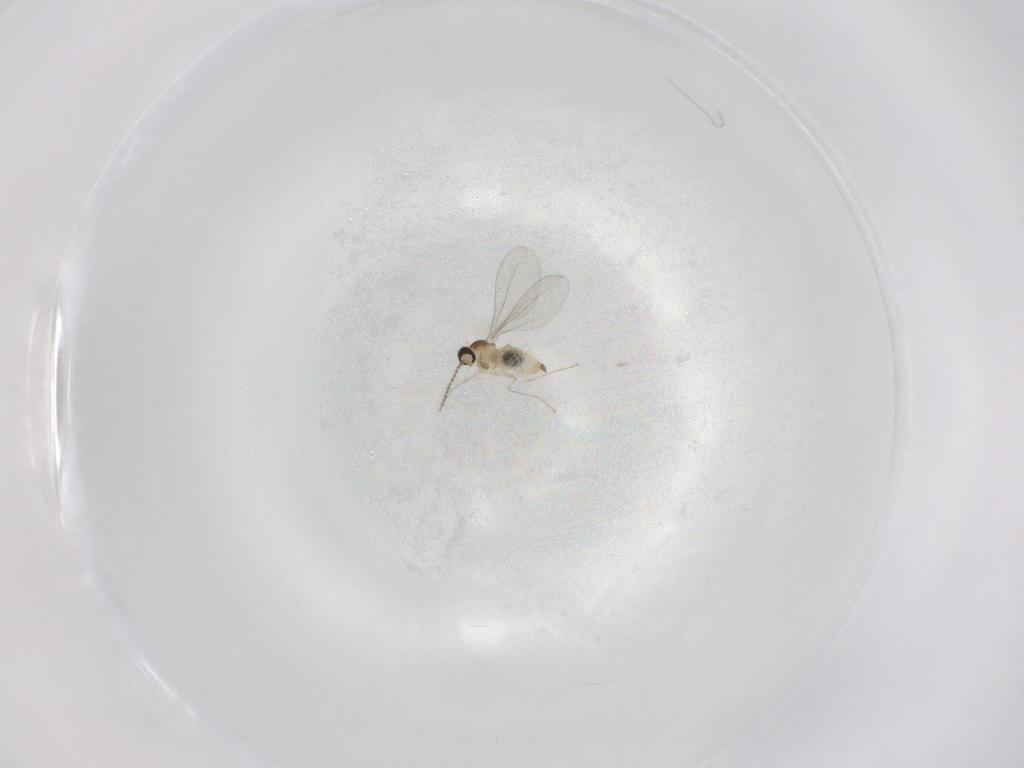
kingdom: Animalia
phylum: Arthropoda
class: Insecta
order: Diptera
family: Cecidomyiidae
